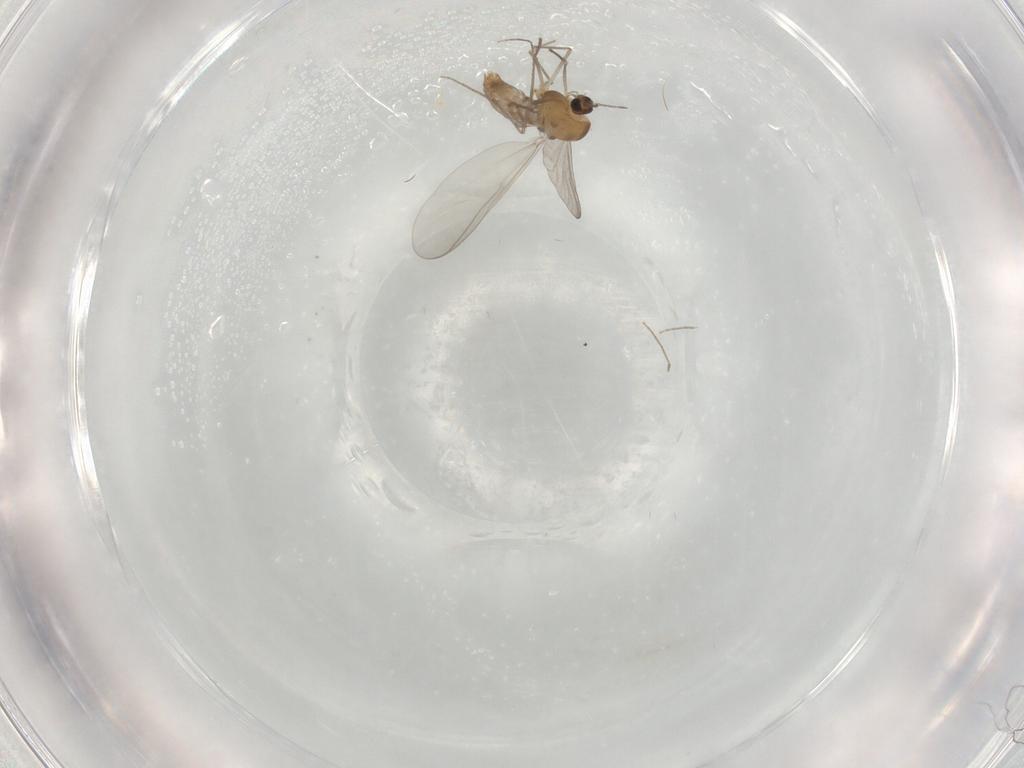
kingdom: Animalia
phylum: Arthropoda
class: Insecta
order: Diptera
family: Chironomidae
